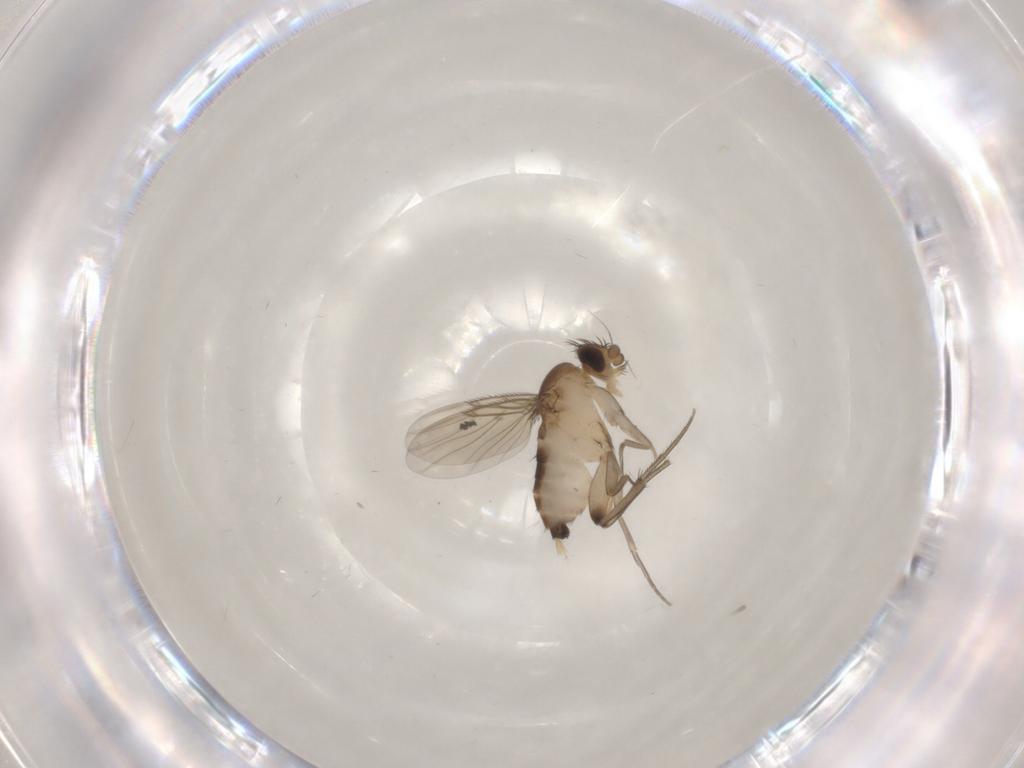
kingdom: Animalia
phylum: Arthropoda
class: Insecta
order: Diptera
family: Phoridae
